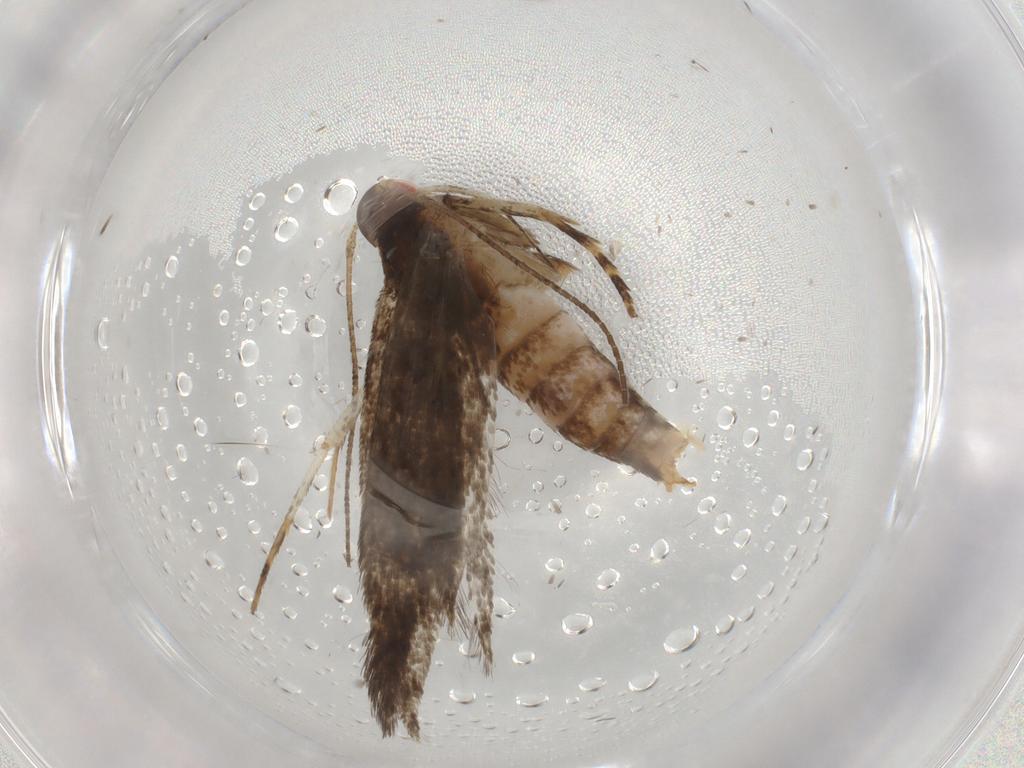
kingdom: Animalia
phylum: Arthropoda
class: Insecta
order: Lepidoptera
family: Cosmopterigidae
